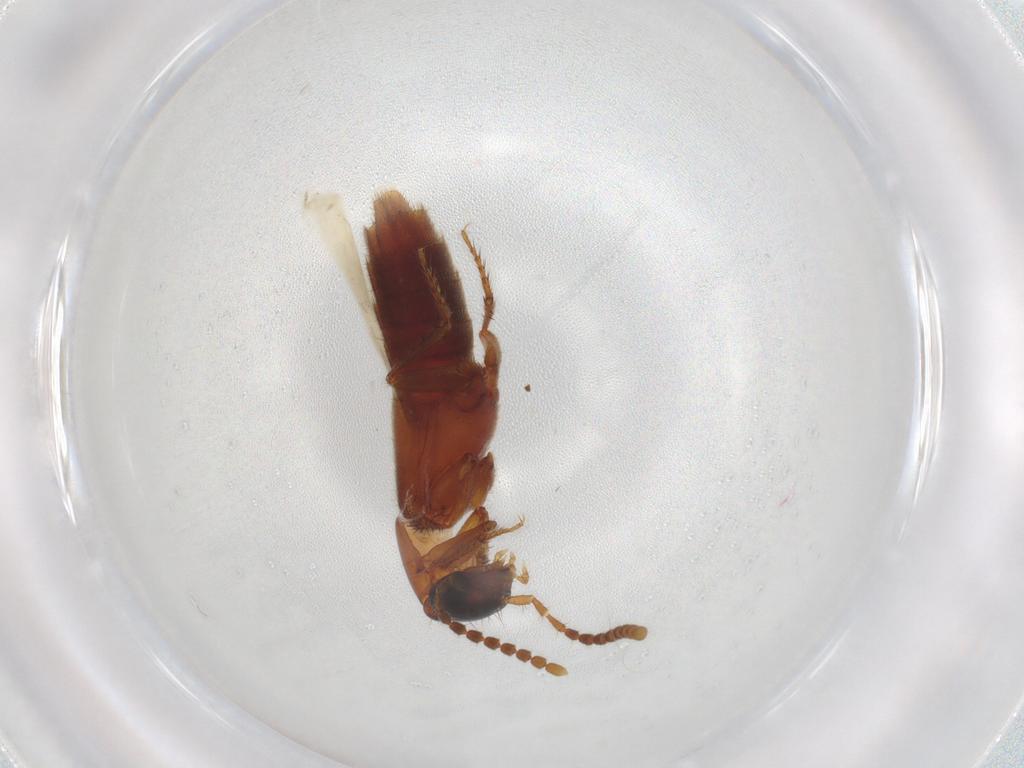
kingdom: Animalia
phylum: Arthropoda
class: Insecta
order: Coleoptera
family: Staphylinidae
